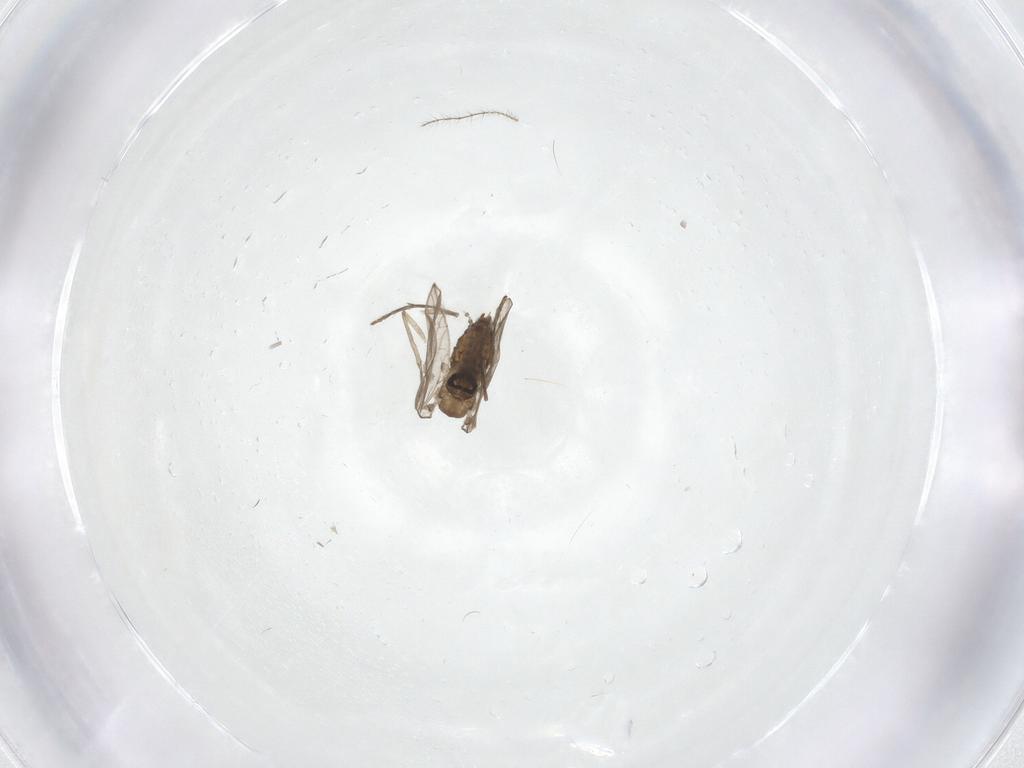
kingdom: Animalia
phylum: Arthropoda
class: Insecta
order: Diptera
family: Psychodidae
